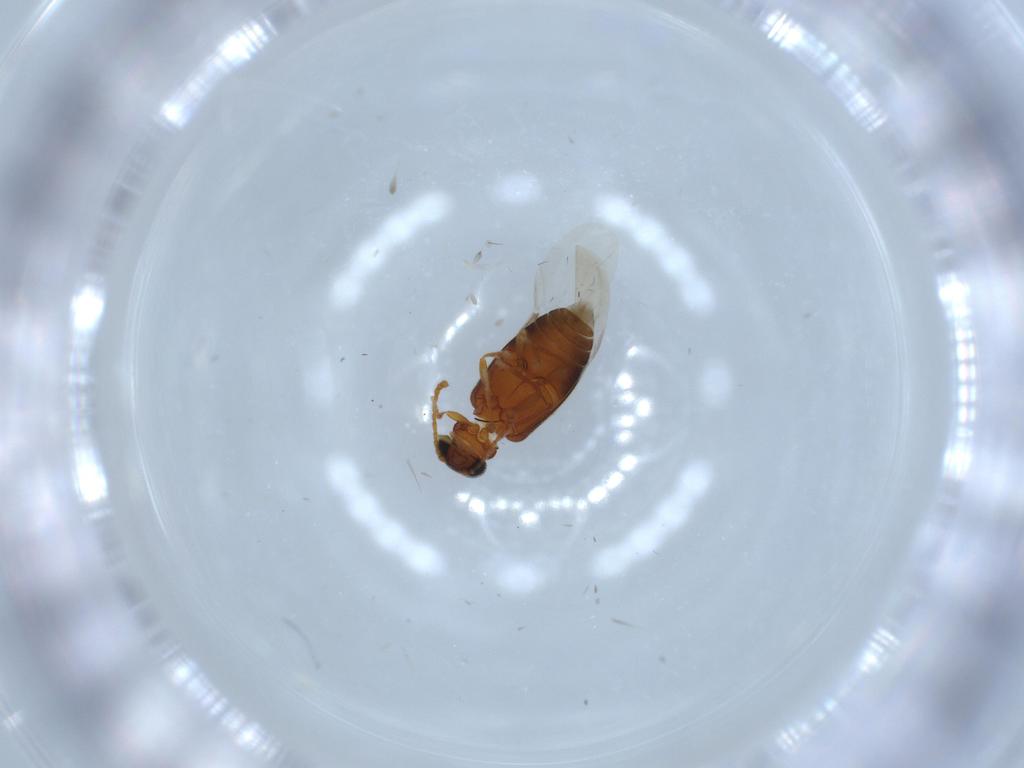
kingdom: Animalia
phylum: Arthropoda
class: Insecta
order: Coleoptera
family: Aderidae
